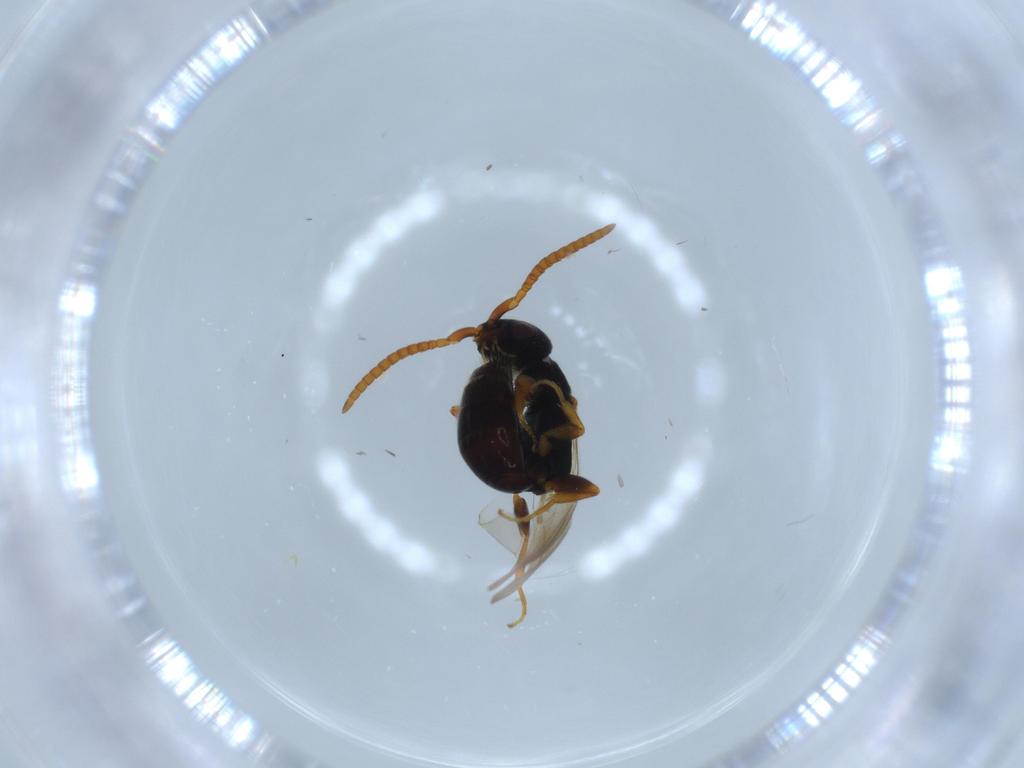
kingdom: Animalia
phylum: Arthropoda
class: Insecta
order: Hymenoptera
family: Bethylidae
